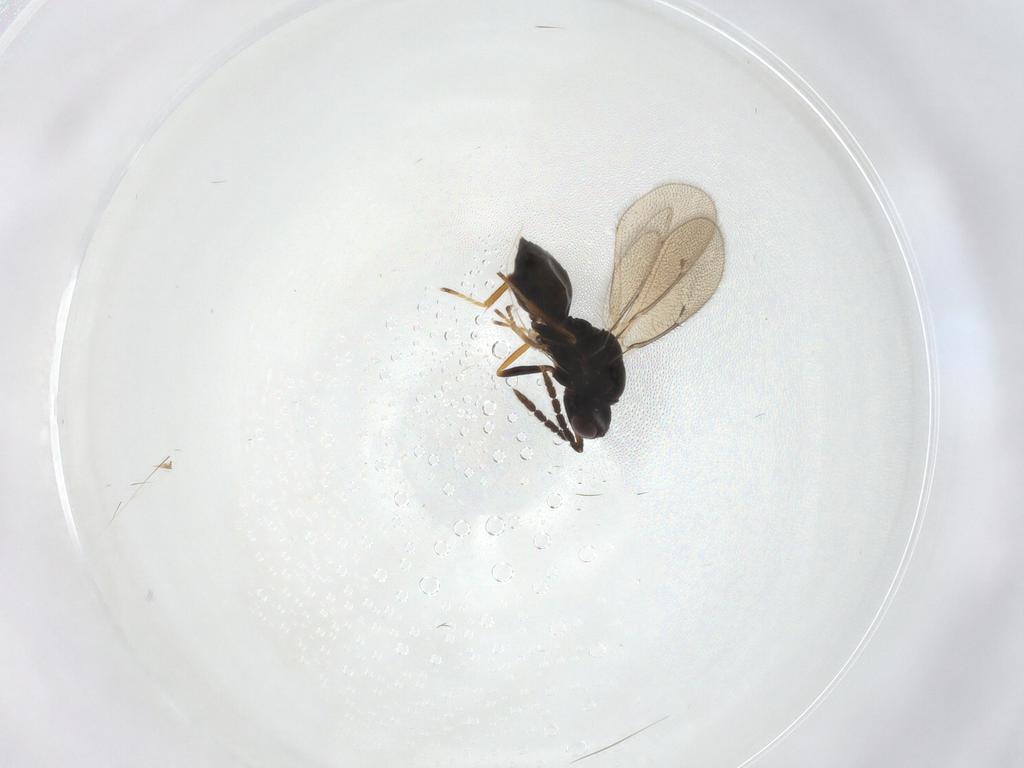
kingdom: Animalia
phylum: Arthropoda
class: Insecta
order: Hymenoptera
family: Eulophidae
